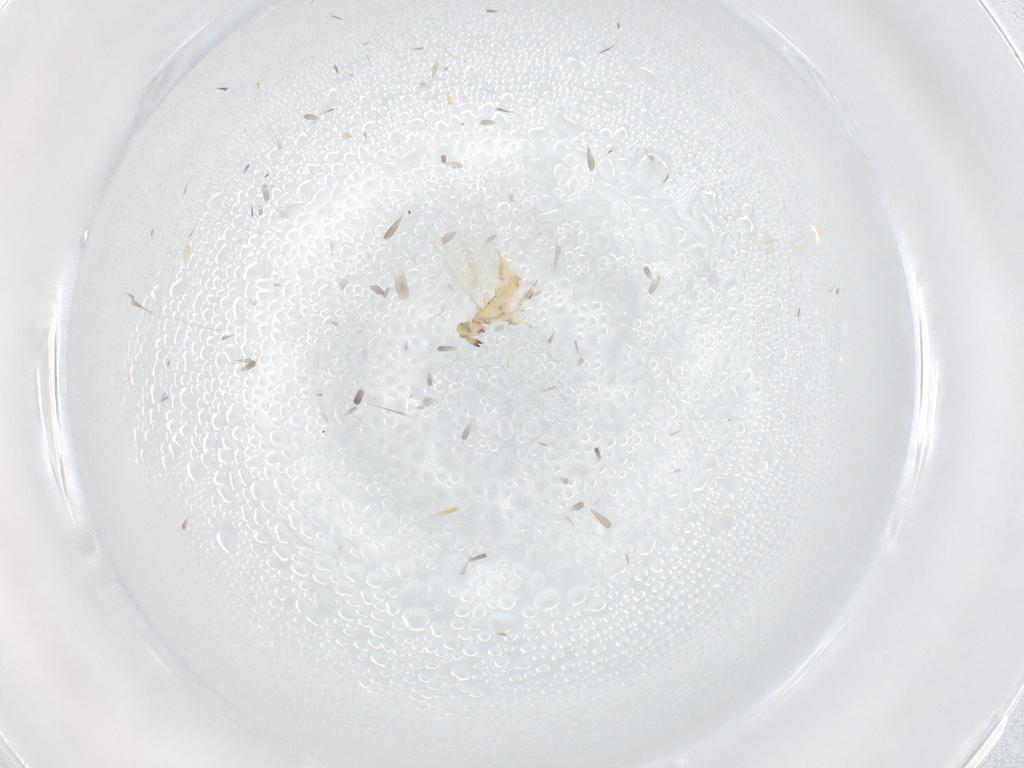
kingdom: Animalia
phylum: Arthropoda
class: Insecta
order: Hymenoptera
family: Aphelinidae
